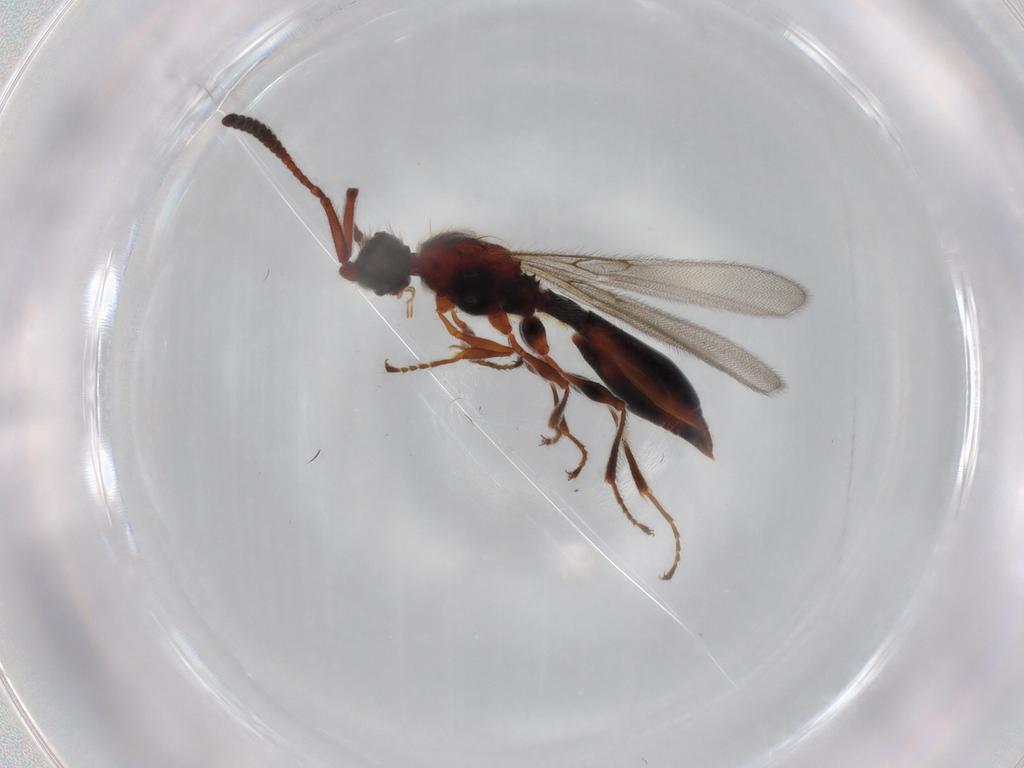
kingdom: Animalia
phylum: Arthropoda
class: Insecta
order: Hymenoptera
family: Diapriidae
